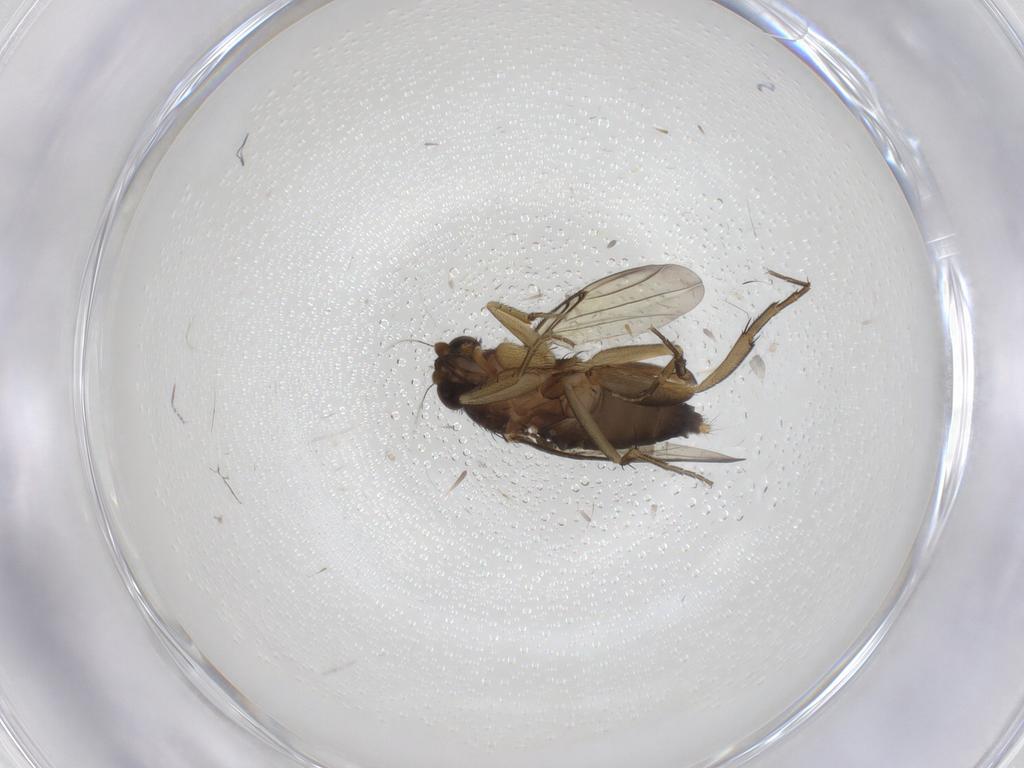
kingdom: Animalia
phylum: Arthropoda
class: Insecta
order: Diptera
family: Phoridae
